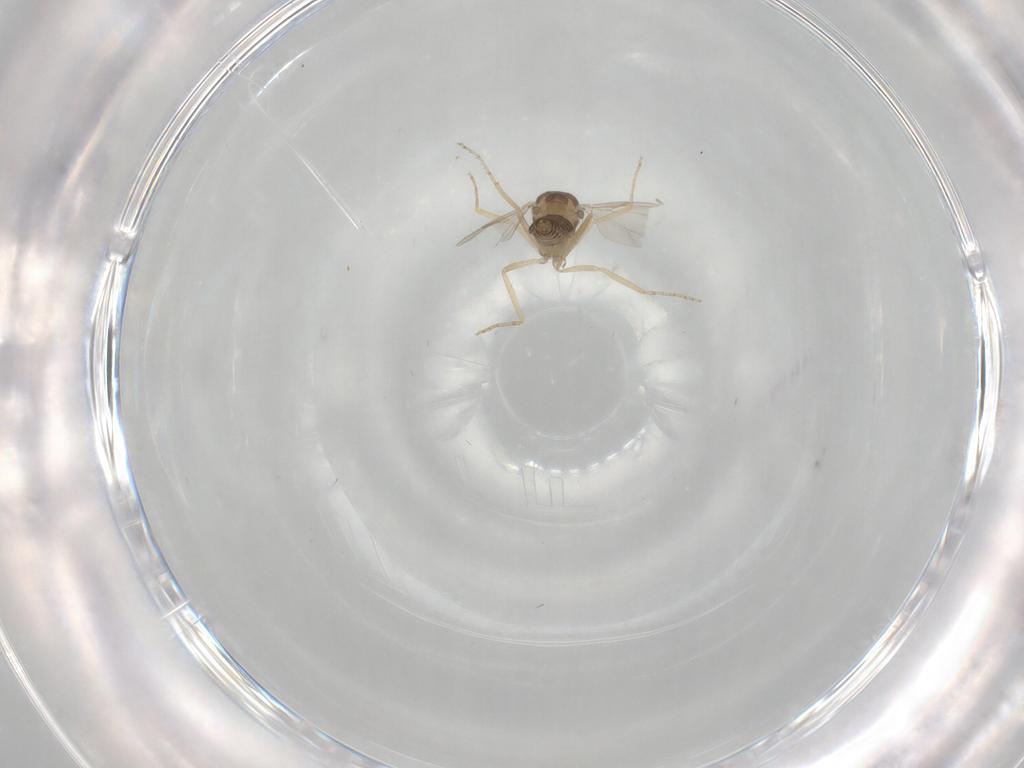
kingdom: Animalia
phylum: Arthropoda
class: Insecta
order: Diptera
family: Ceratopogonidae
